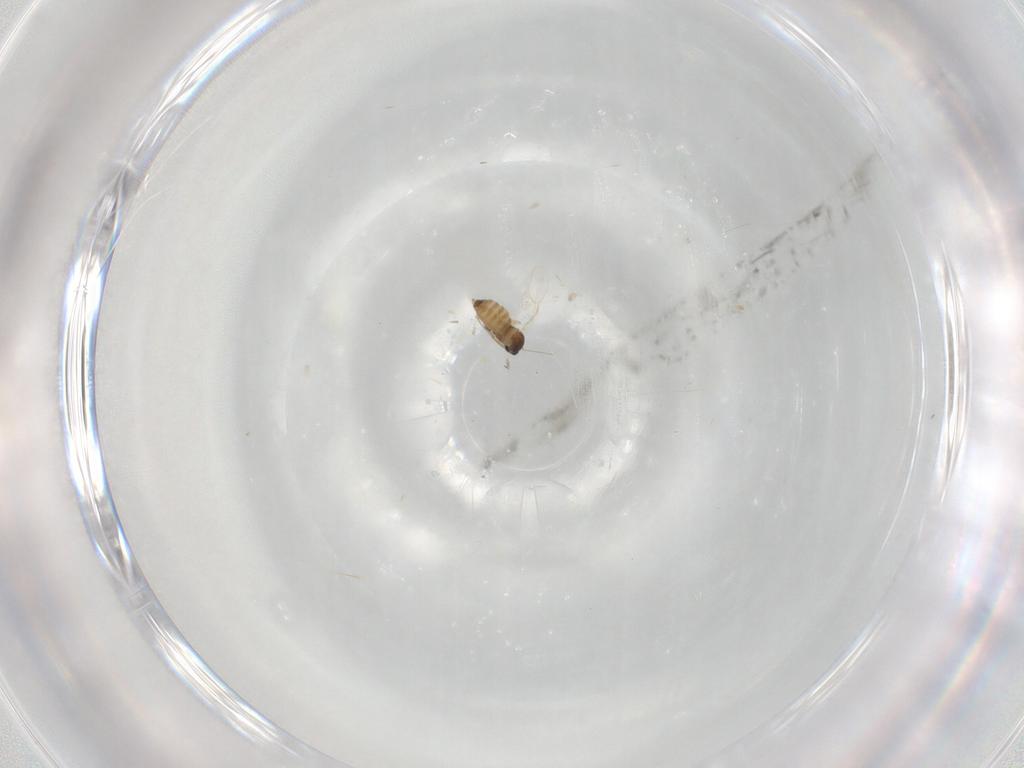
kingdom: Animalia
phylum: Arthropoda
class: Insecta
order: Diptera
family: Cecidomyiidae
